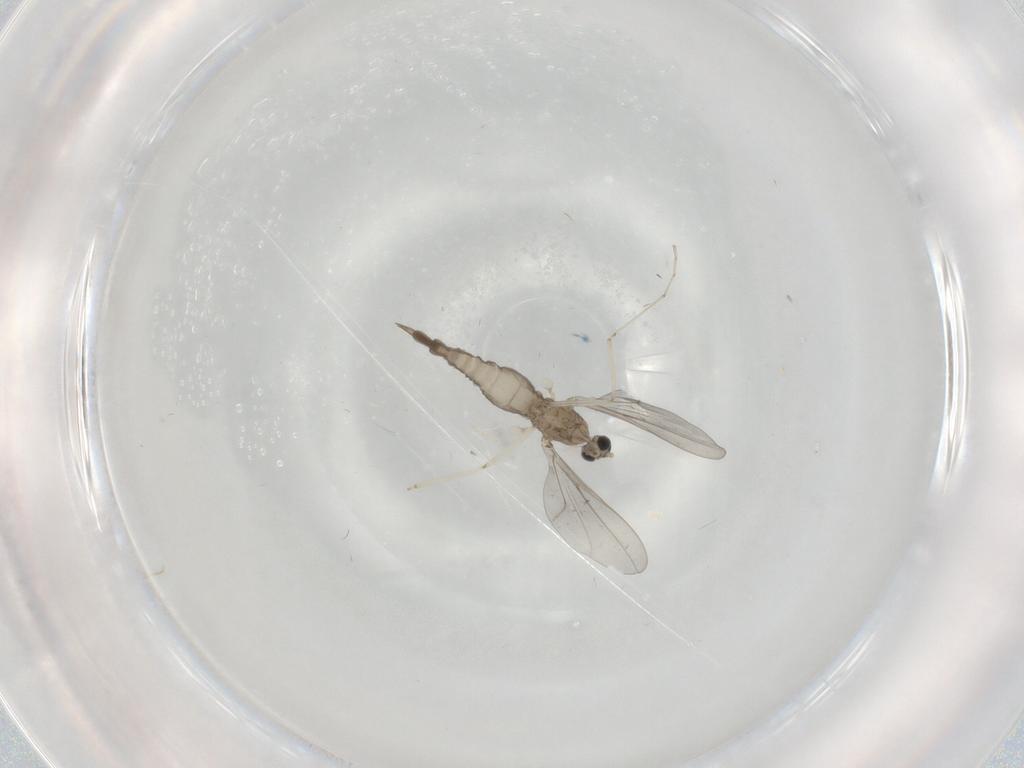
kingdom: Animalia
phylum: Arthropoda
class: Insecta
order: Diptera
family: Cecidomyiidae
